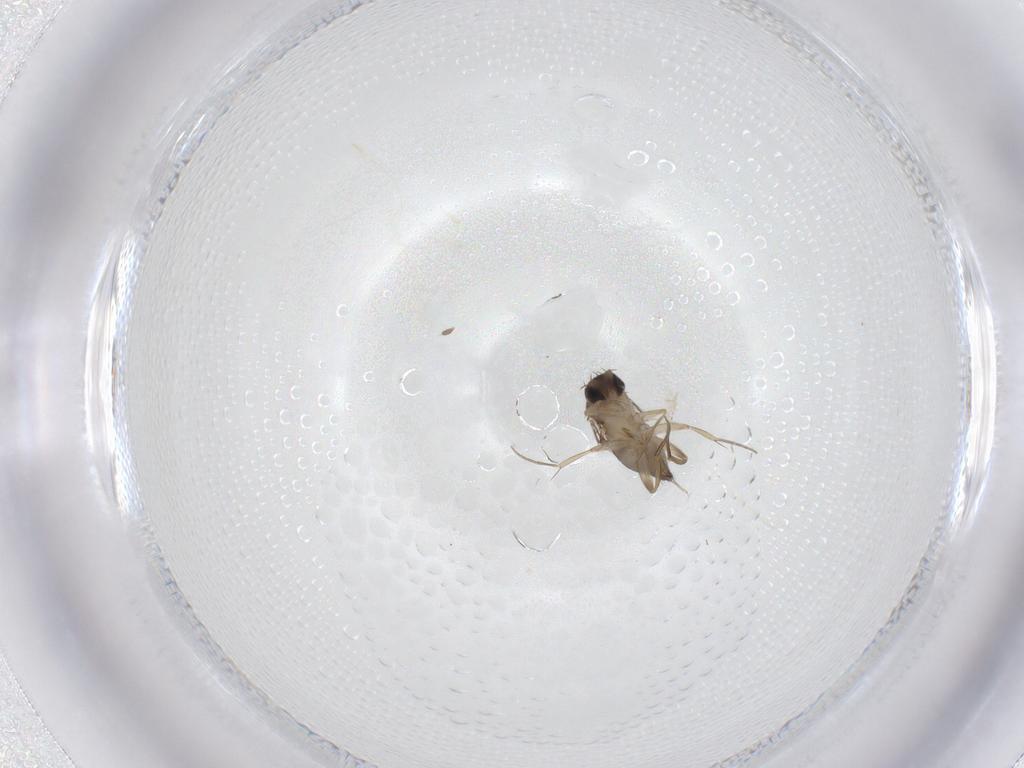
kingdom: Animalia
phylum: Arthropoda
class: Insecta
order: Diptera
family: Phoridae
